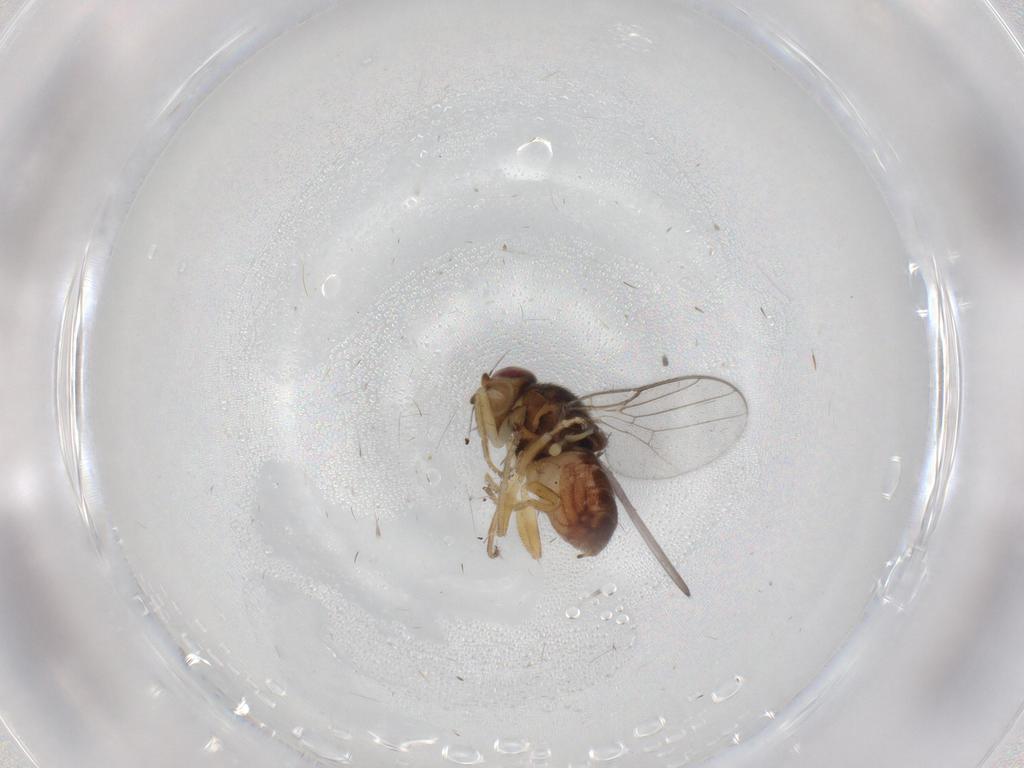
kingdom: Animalia
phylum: Arthropoda
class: Insecta
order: Diptera
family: Chloropidae
